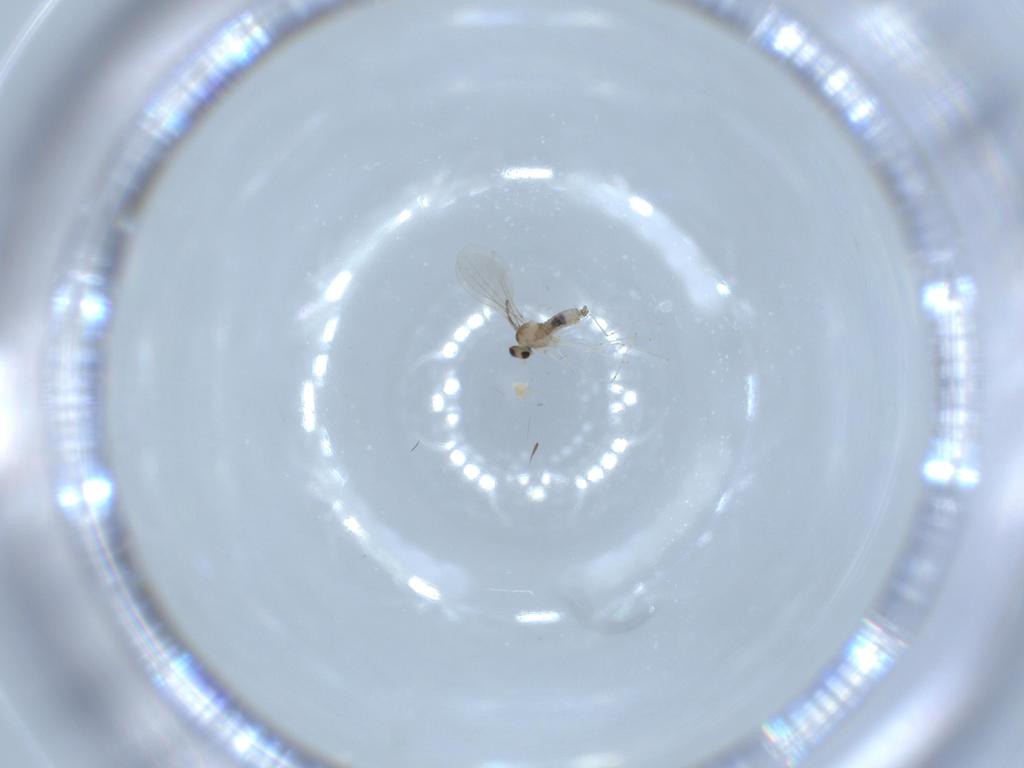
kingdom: Animalia
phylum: Arthropoda
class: Insecta
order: Diptera
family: Cecidomyiidae
